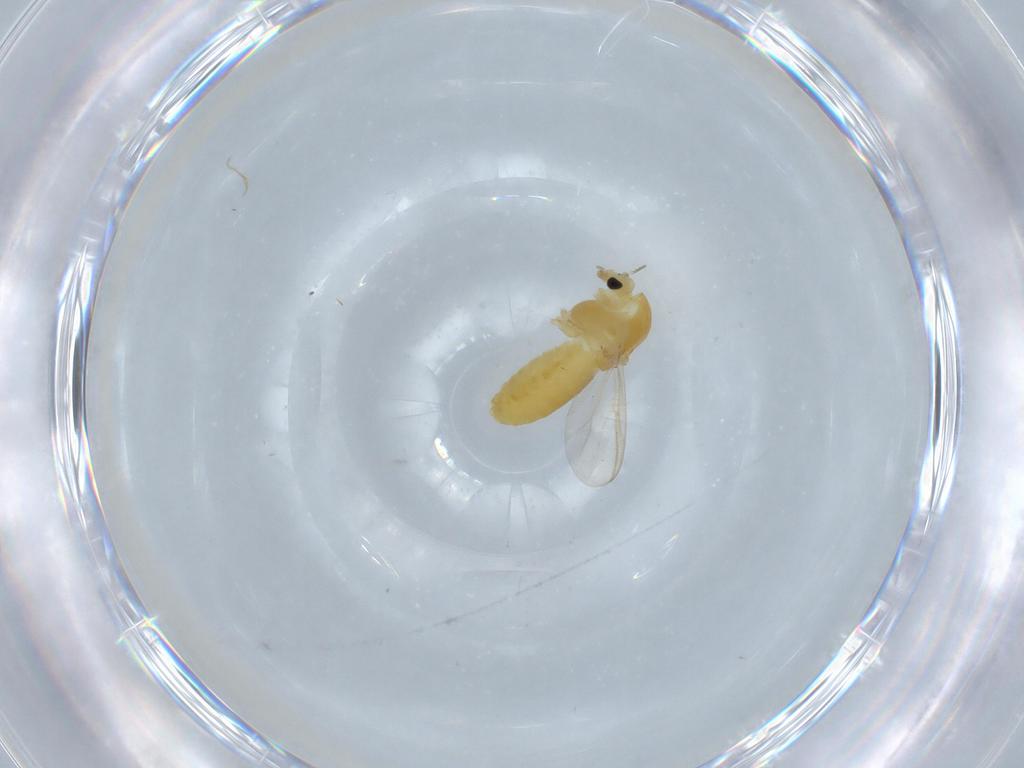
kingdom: Animalia
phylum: Arthropoda
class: Insecta
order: Diptera
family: Chironomidae
